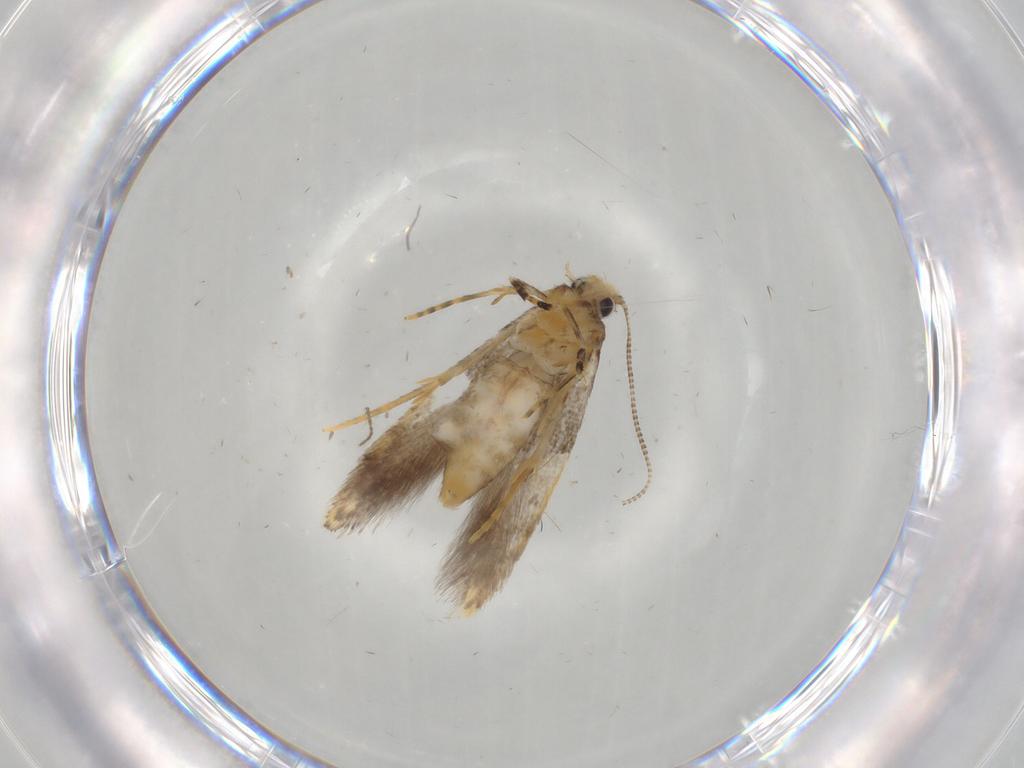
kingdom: Animalia
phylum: Arthropoda
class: Insecta
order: Lepidoptera
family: Tineidae
